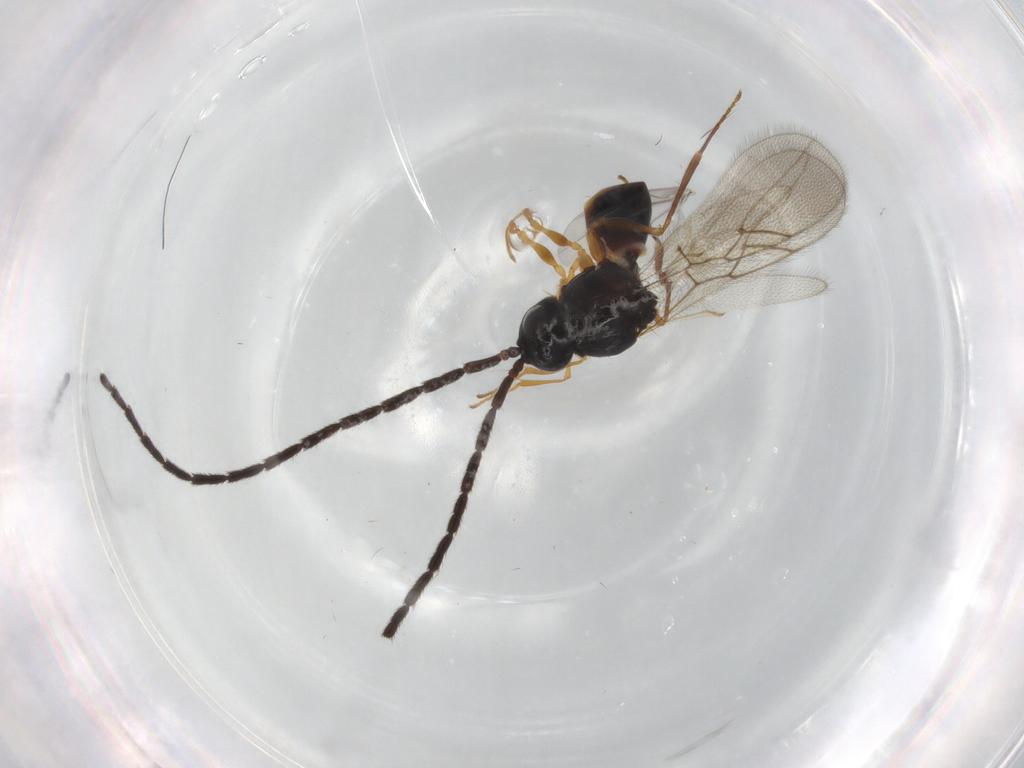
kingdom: Animalia
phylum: Arthropoda
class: Insecta
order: Hymenoptera
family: Figitidae
